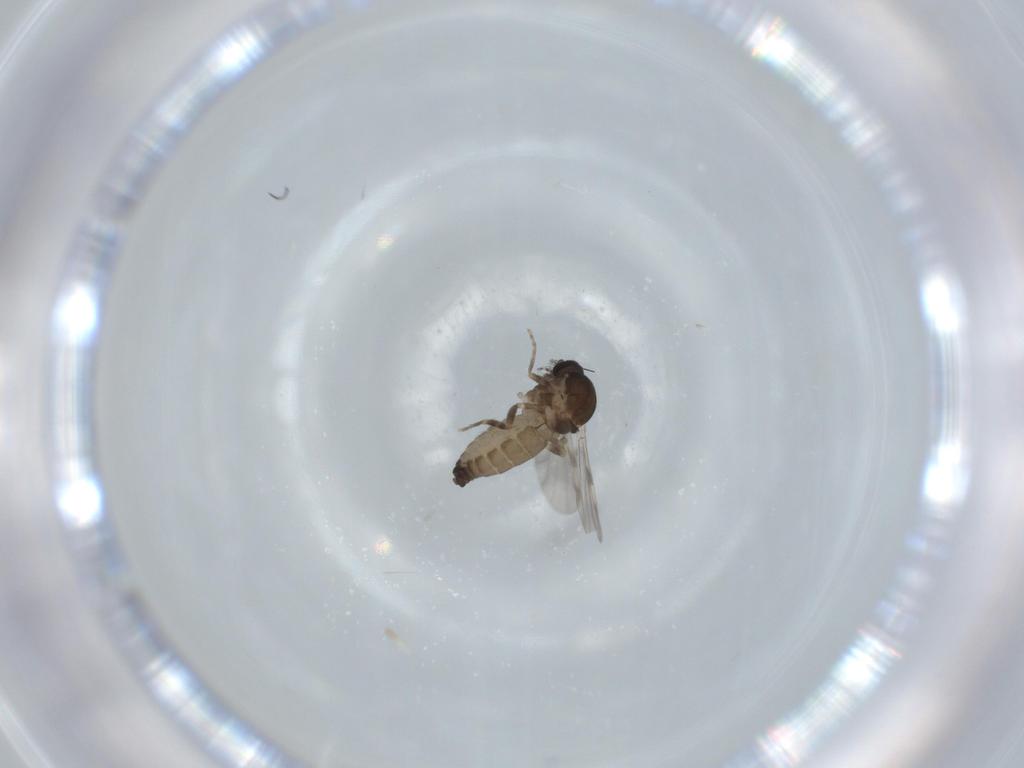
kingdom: Animalia
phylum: Arthropoda
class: Insecta
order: Diptera
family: Ceratopogonidae
